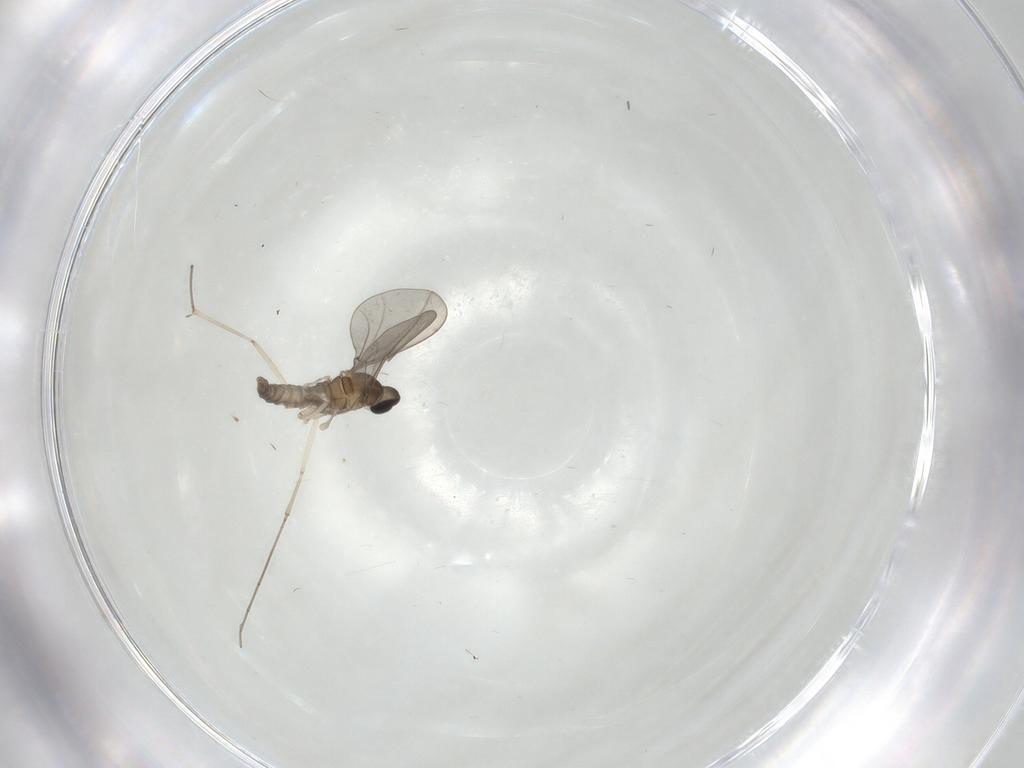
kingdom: Animalia
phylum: Arthropoda
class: Insecta
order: Diptera
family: Cecidomyiidae
